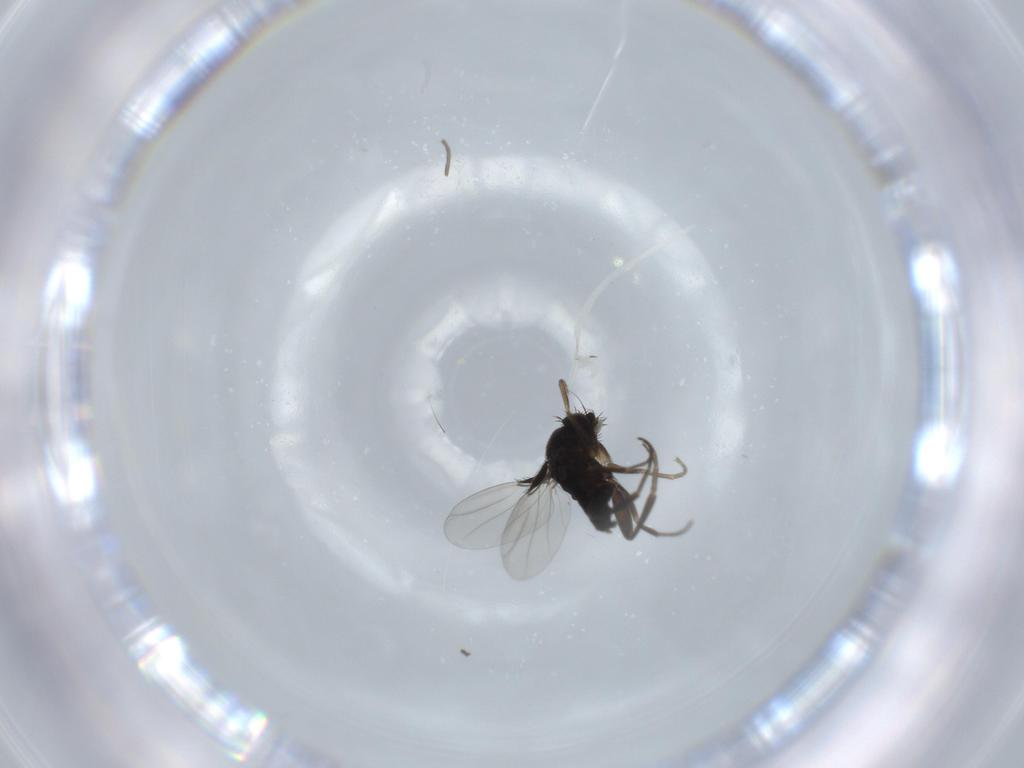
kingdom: Animalia
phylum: Arthropoda
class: Insecta
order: Diptera
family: Phoridae
